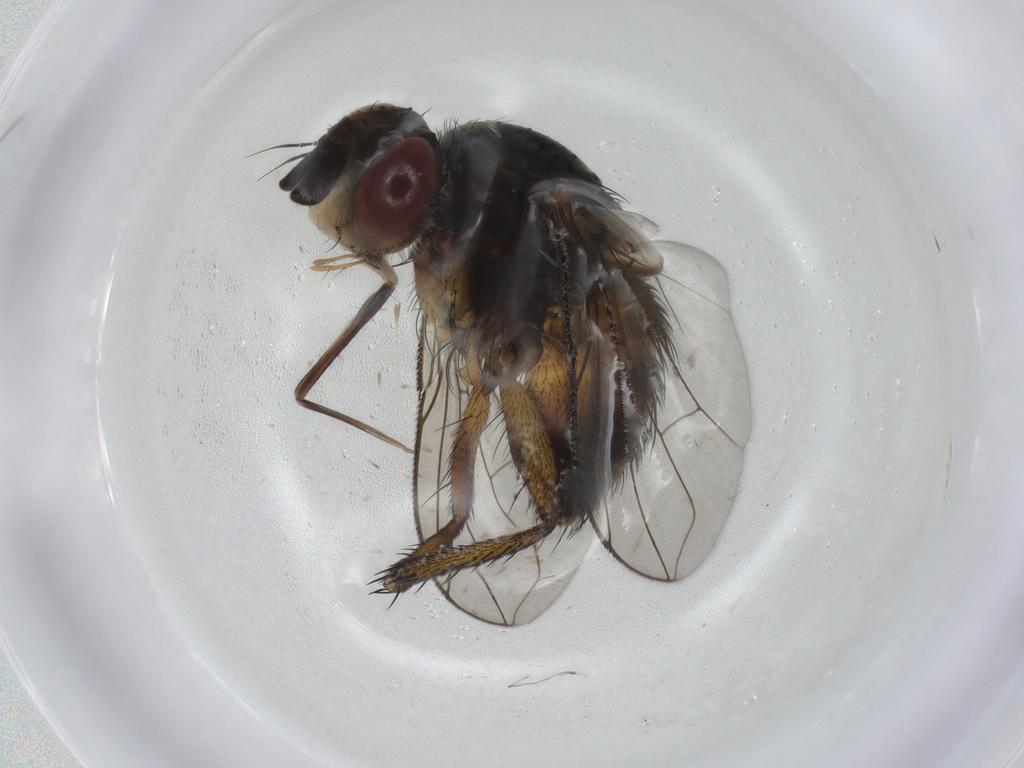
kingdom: Animalia
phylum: Arthropoda
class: Insecta
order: Diptera
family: Tachinidae
